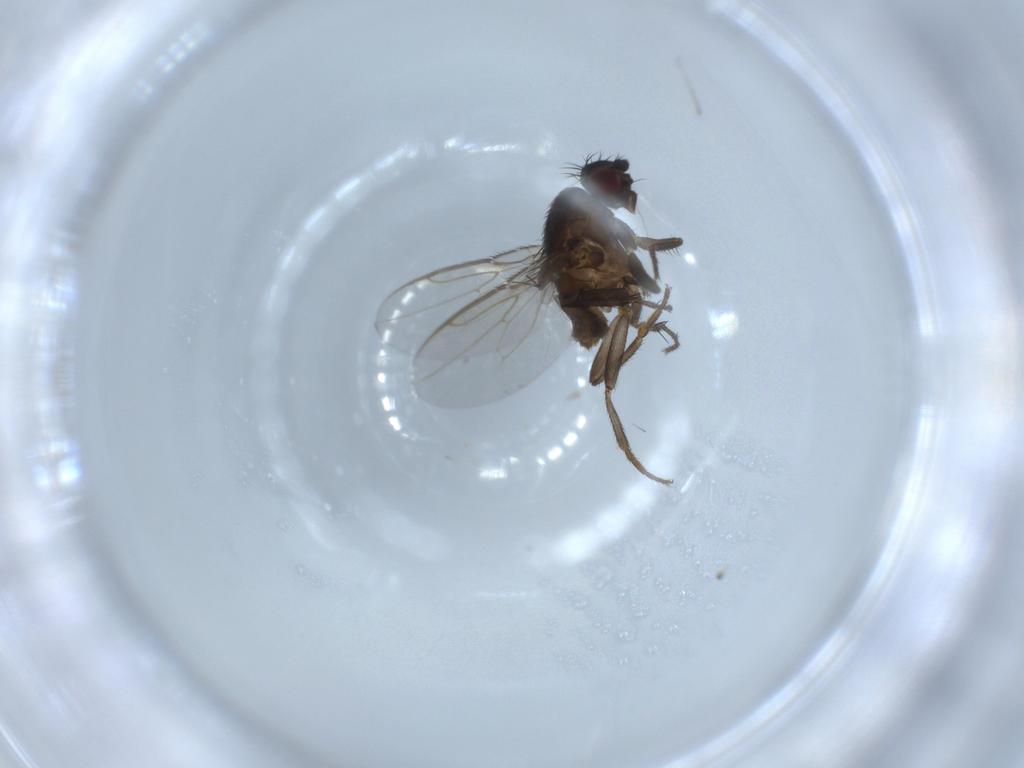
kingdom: Animalia
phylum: Arthropoda
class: Insecta
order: Diptera
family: Sphaeroceridae
